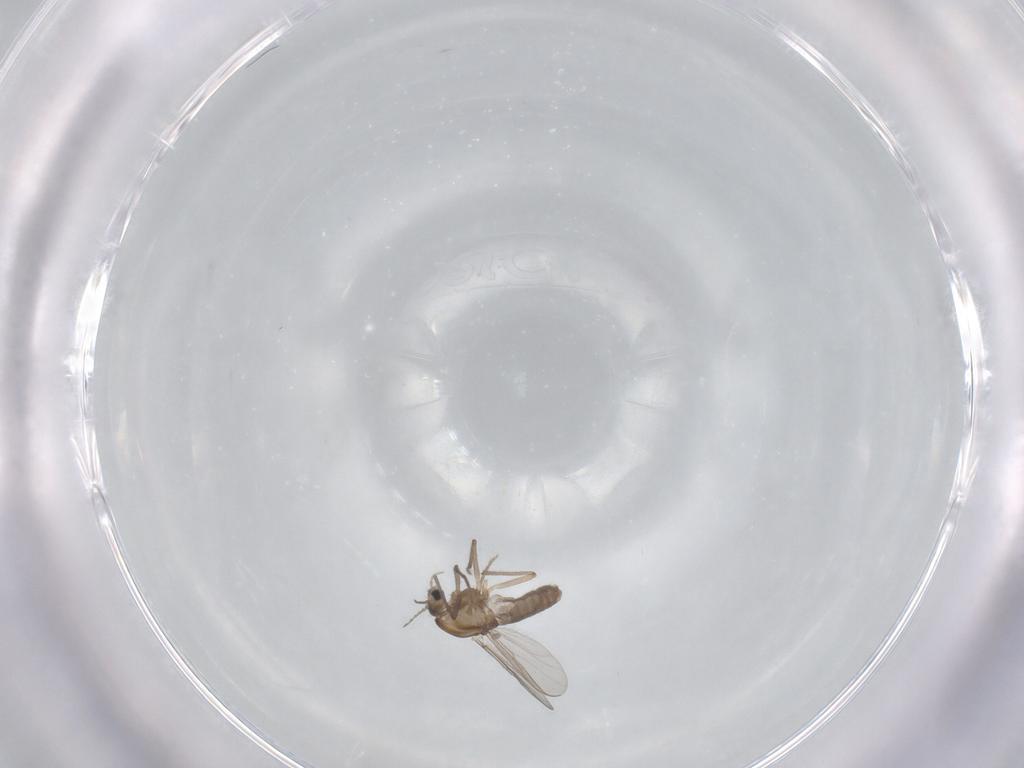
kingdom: Animalia
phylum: Arthropoda
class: Insecta
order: Diptera
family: Chironomidae
